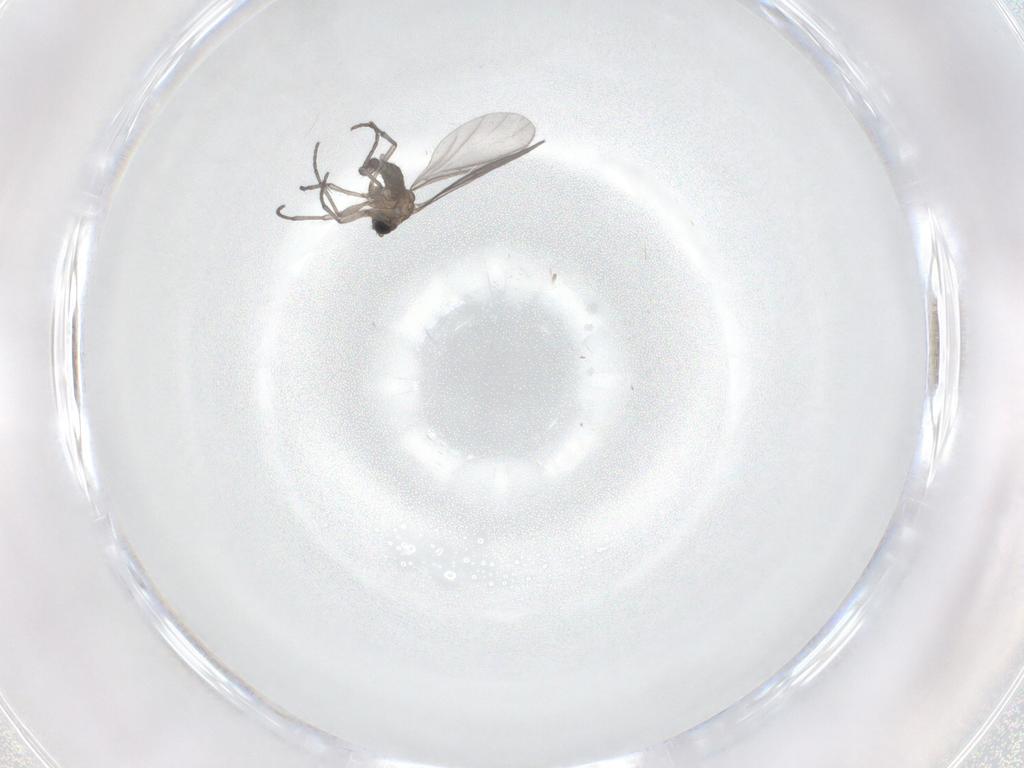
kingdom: Animalia
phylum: Arthropoda
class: Insecta
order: Diptera
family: Sciaridae
